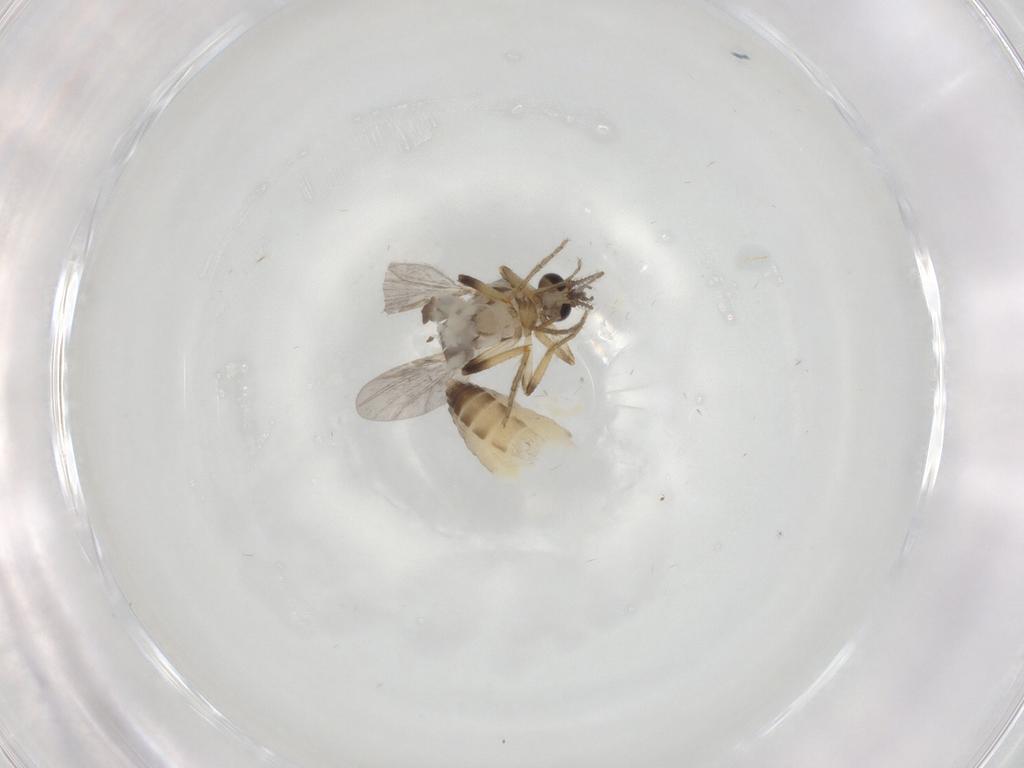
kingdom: Animalia
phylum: Arthropoda
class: Insecta
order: Diptera
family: Ceratopogonidae
